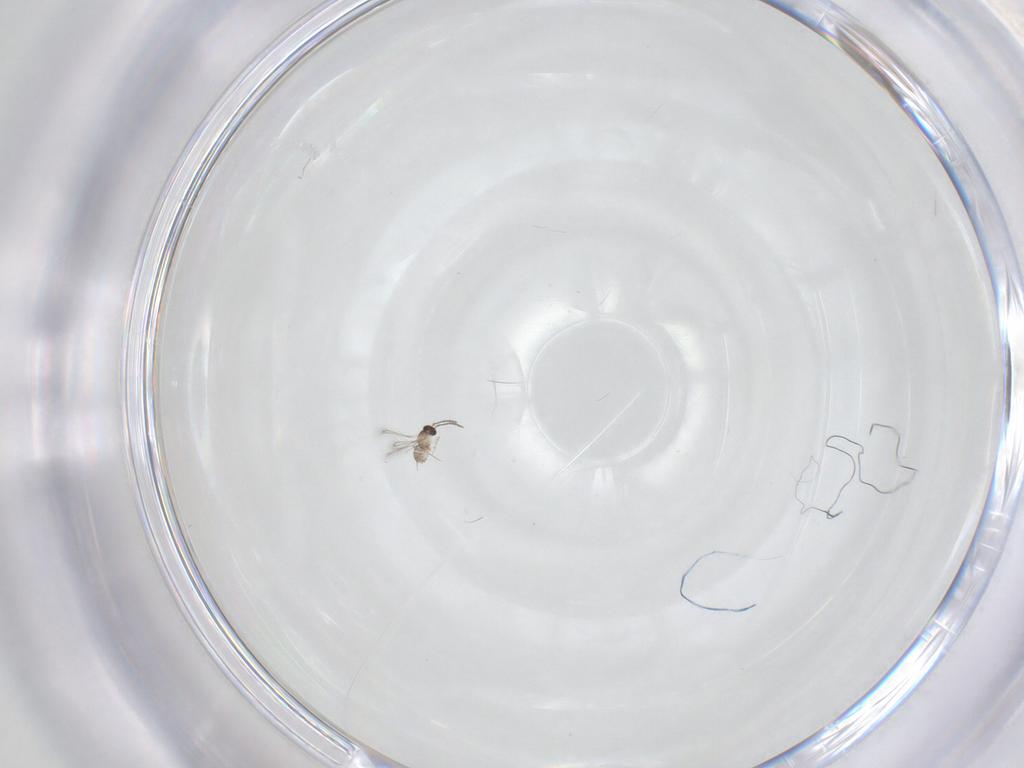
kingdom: Animalia
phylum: Arthropoda
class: Insecta
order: Hymenoptera
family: Mymaridae
